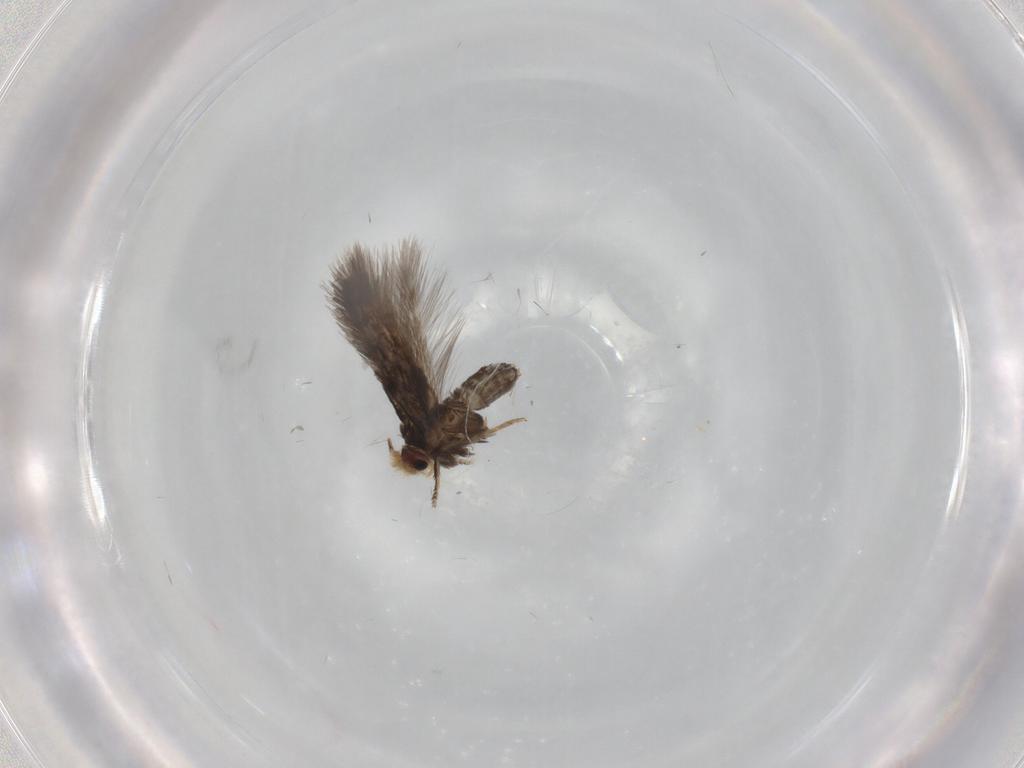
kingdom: Animalia
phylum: Arthropoda
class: Insecta
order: Lepidoptera
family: Nepticulidae
